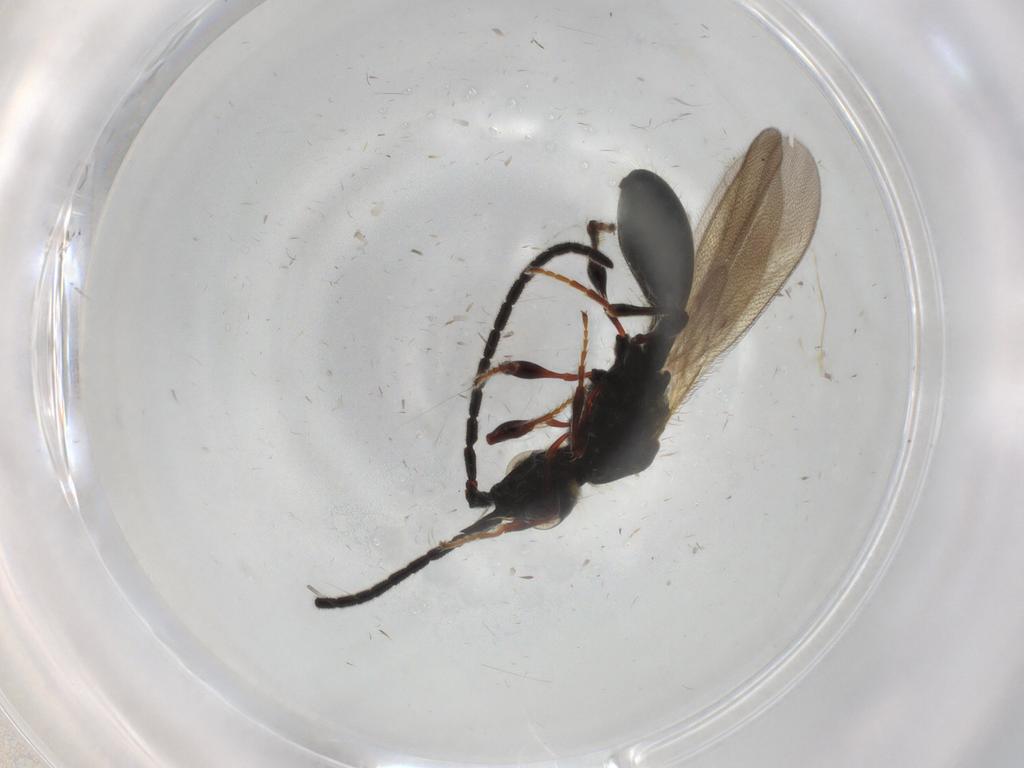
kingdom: Animalia
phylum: Arthropoda
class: Insecta
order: Hymenoptera
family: Diapriidae
